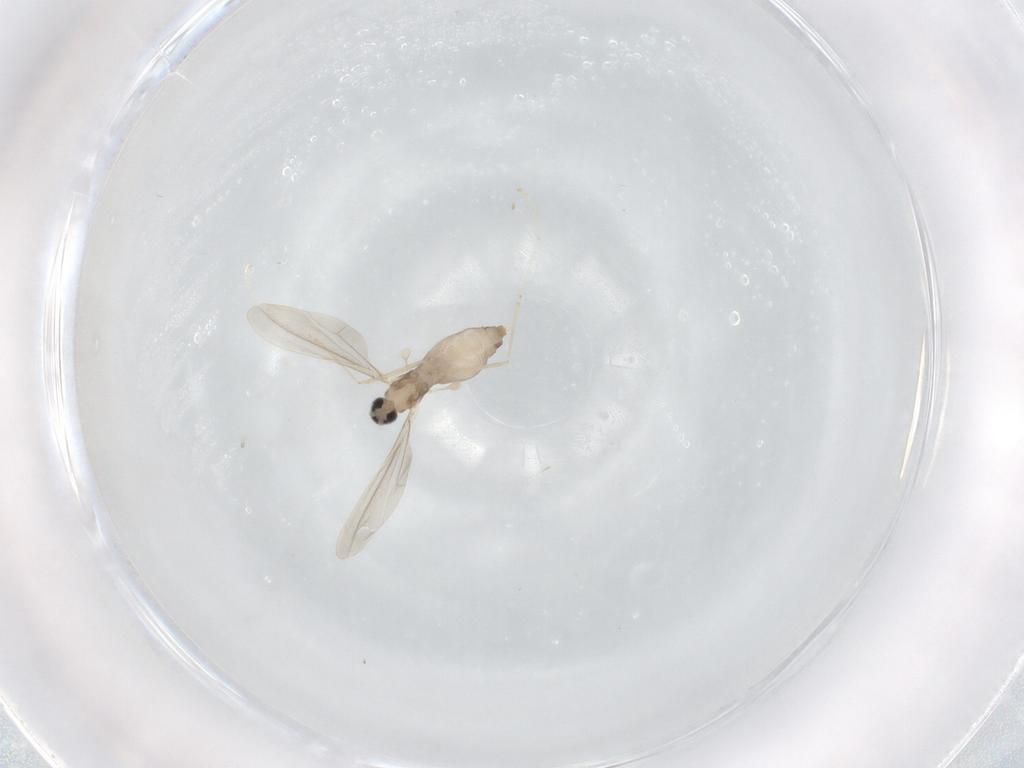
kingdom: Animalia
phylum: Arthropoda
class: Insecta
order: Diptera
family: Cecidomyiidae
